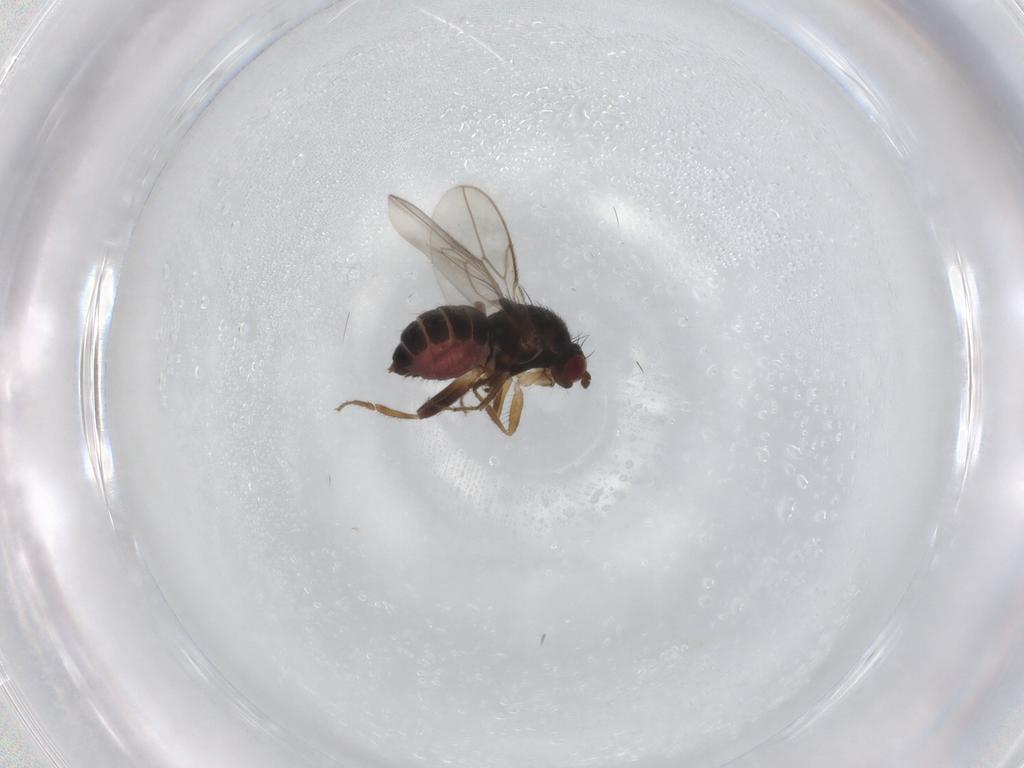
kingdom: Animalia
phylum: Arthropoda
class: Insecta
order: Diptera
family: Sphaeroceridae
